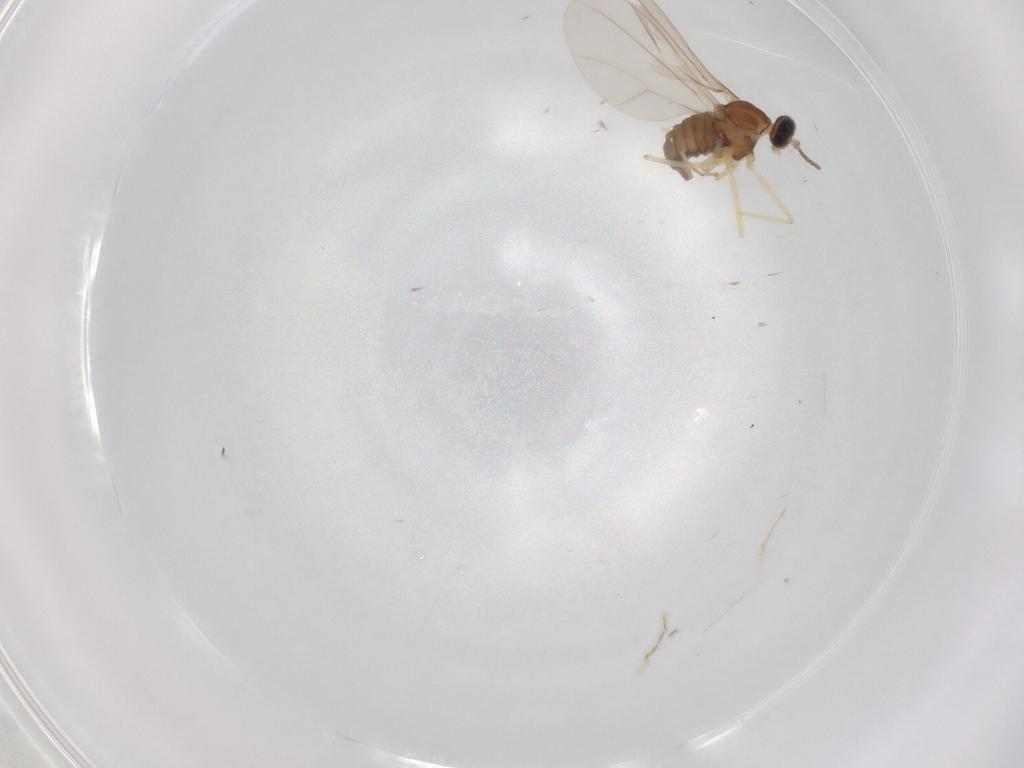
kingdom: Animalia
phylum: Arthropoda
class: Insecta
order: Diptera
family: Cecidomyiidae
